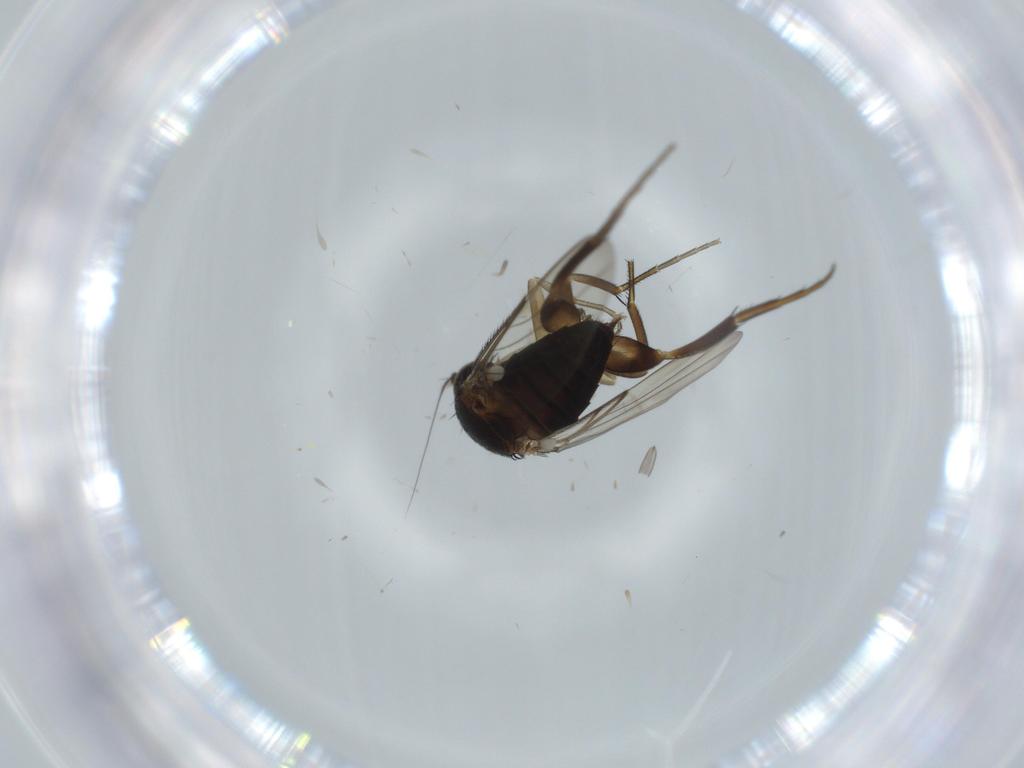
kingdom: Animalia
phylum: Arthropoda
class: Insecta
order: Diptera
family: Phoridae
